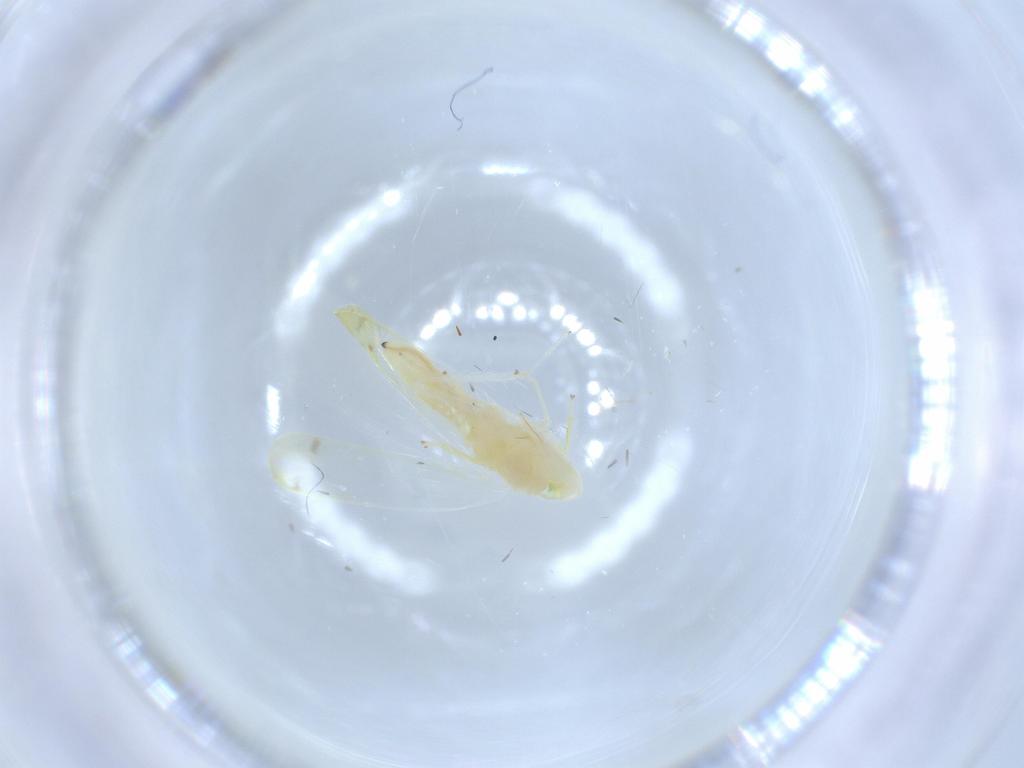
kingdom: Animalia
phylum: Arthropoda
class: Insecta
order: Hemiptera
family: Cicadellidae
